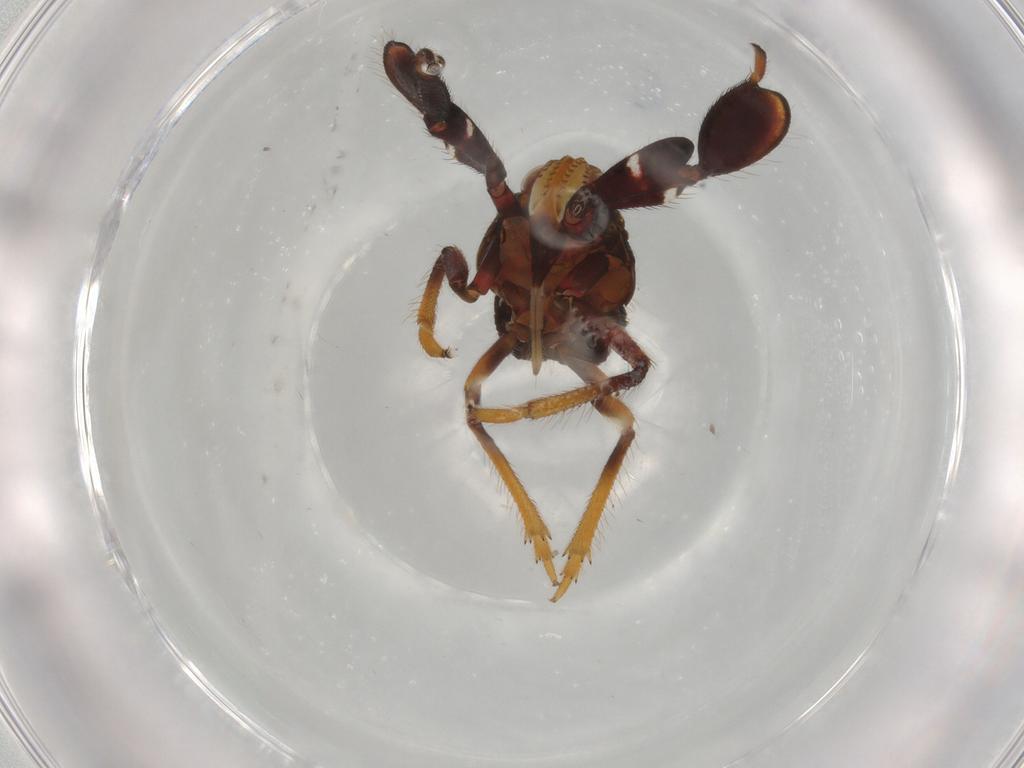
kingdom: Animalia
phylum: Arthropoda
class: Insecta
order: Hemiptera
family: Caliscelidae
